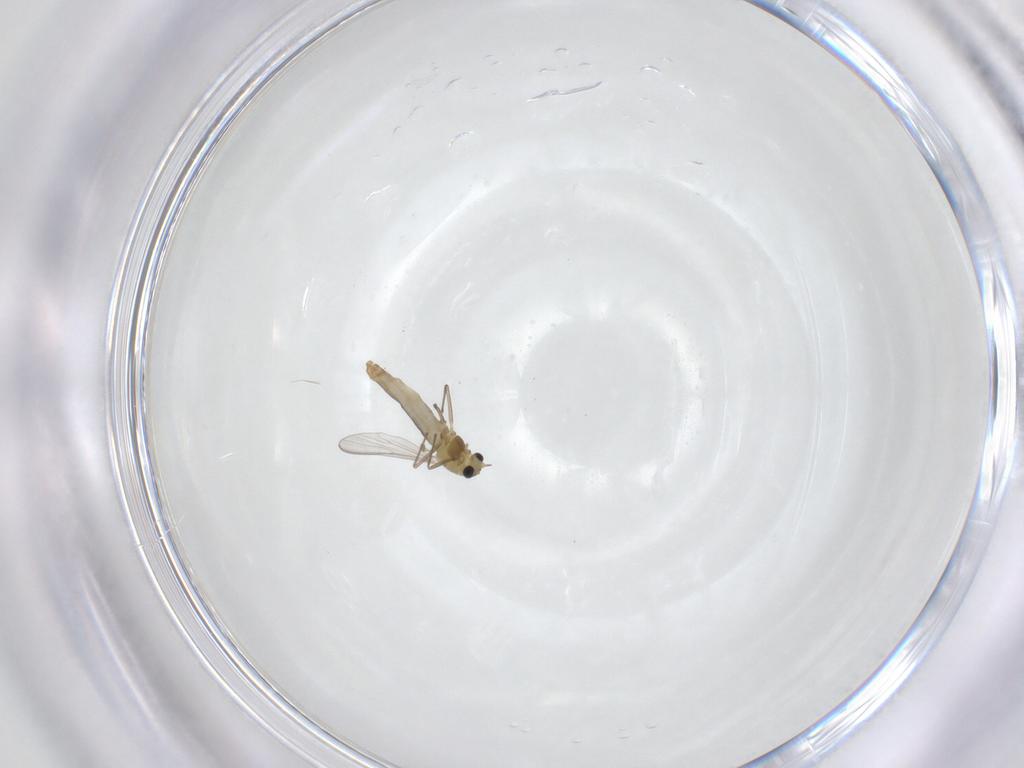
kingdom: Animalia
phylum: Arthropoda
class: Insecta
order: Diptera
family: Chironomidae
